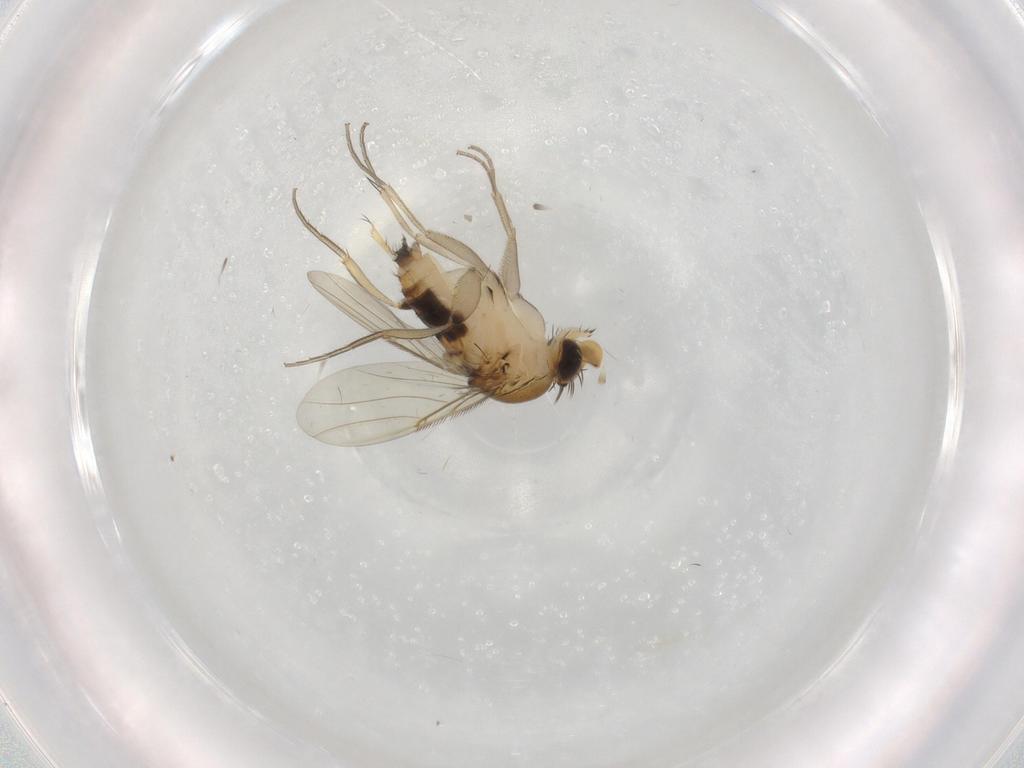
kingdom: Animalia
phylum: Arthropoda
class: Insecta
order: Diptera
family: Phoridae
